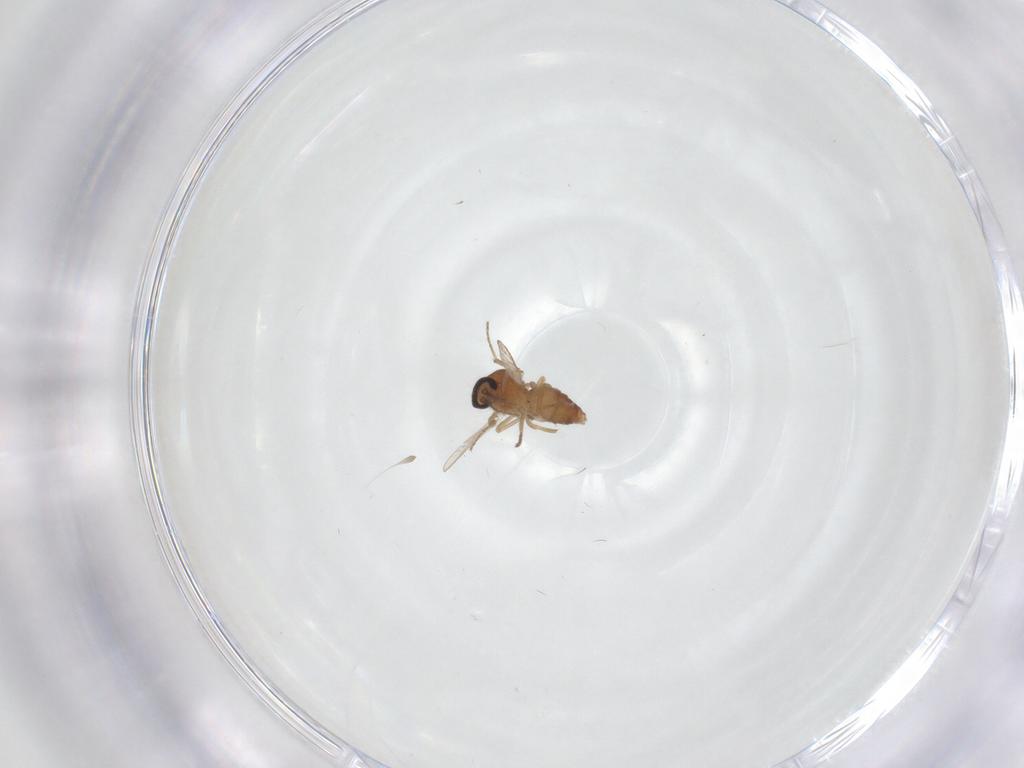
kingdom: Animalia
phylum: Arthropoda
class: Insecta
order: Diptera
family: Ceratopogonidae
